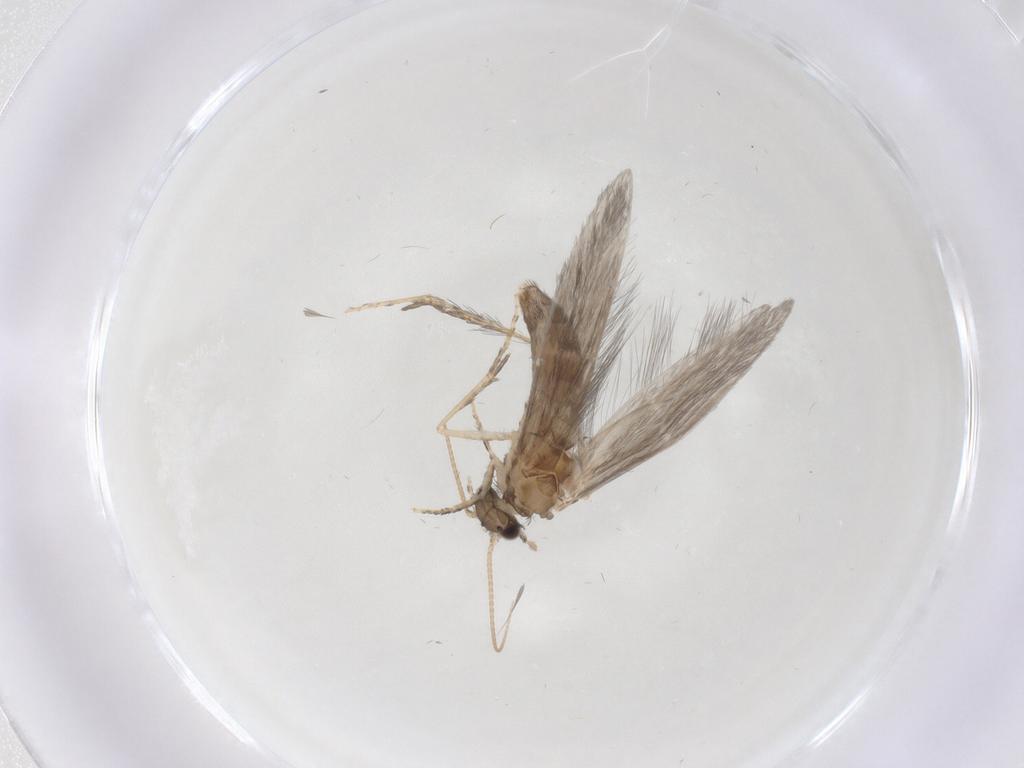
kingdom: Animalia
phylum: Arthropoda
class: Insecta
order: Trichoptera
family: Hydroptilidae
